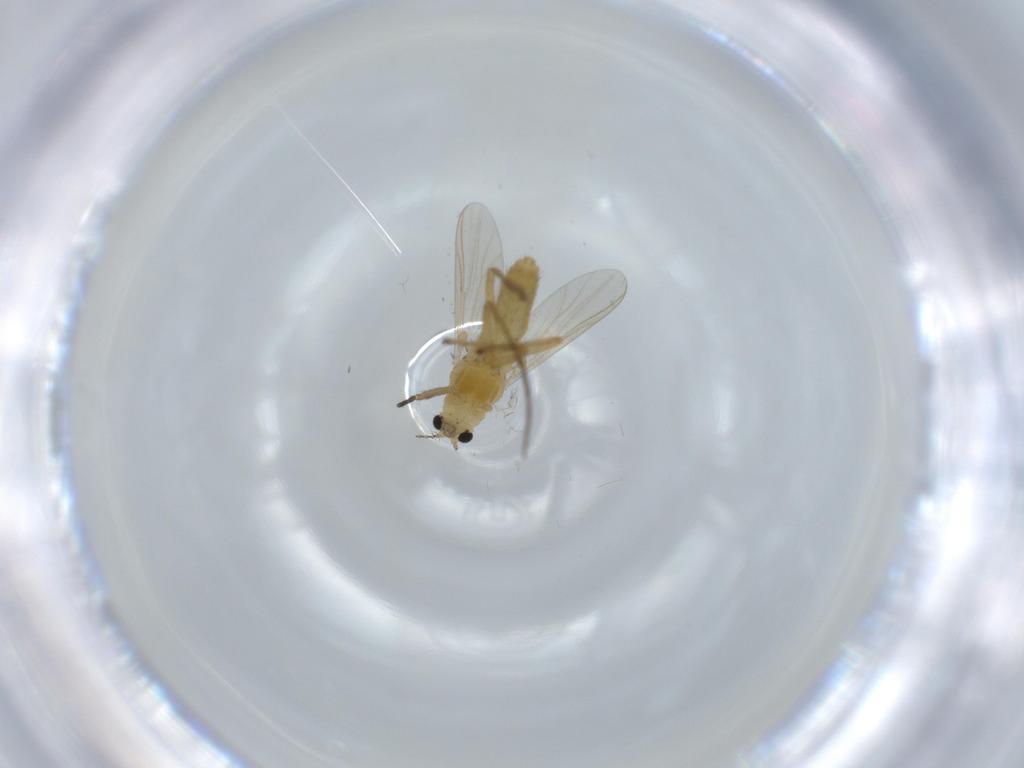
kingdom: Animalia
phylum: Arthropoda
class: Insecta
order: Diptera
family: Chironomidae
